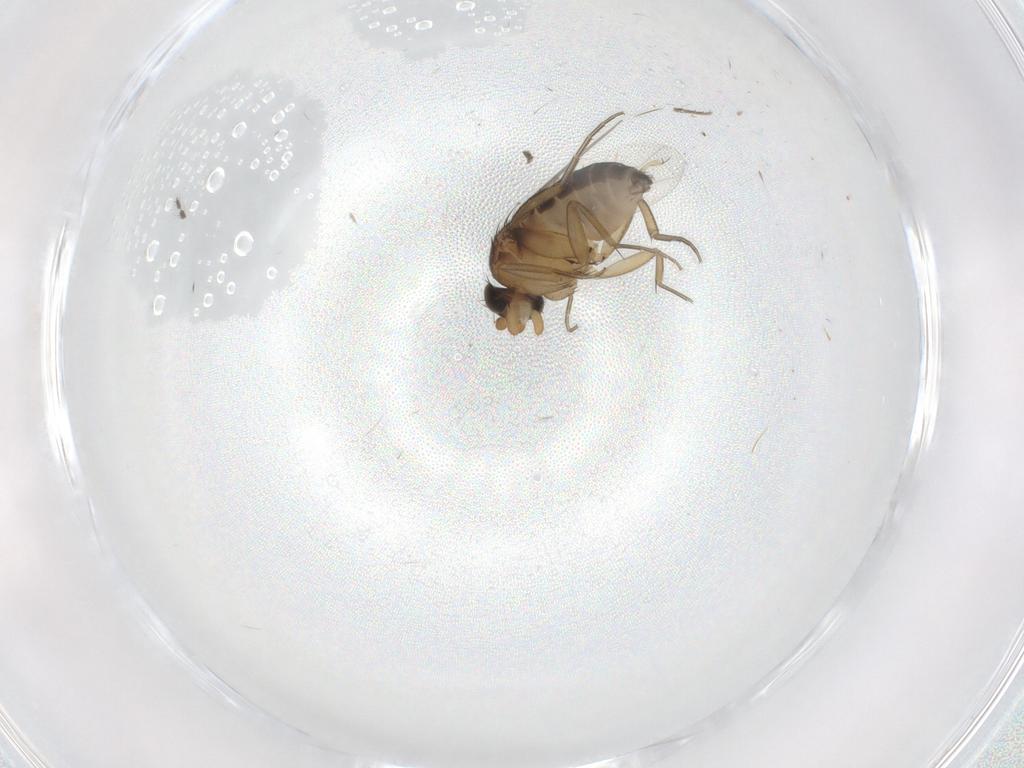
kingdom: Animalia
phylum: Arthropoda
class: Insecta
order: Diptera
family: Phoridae
